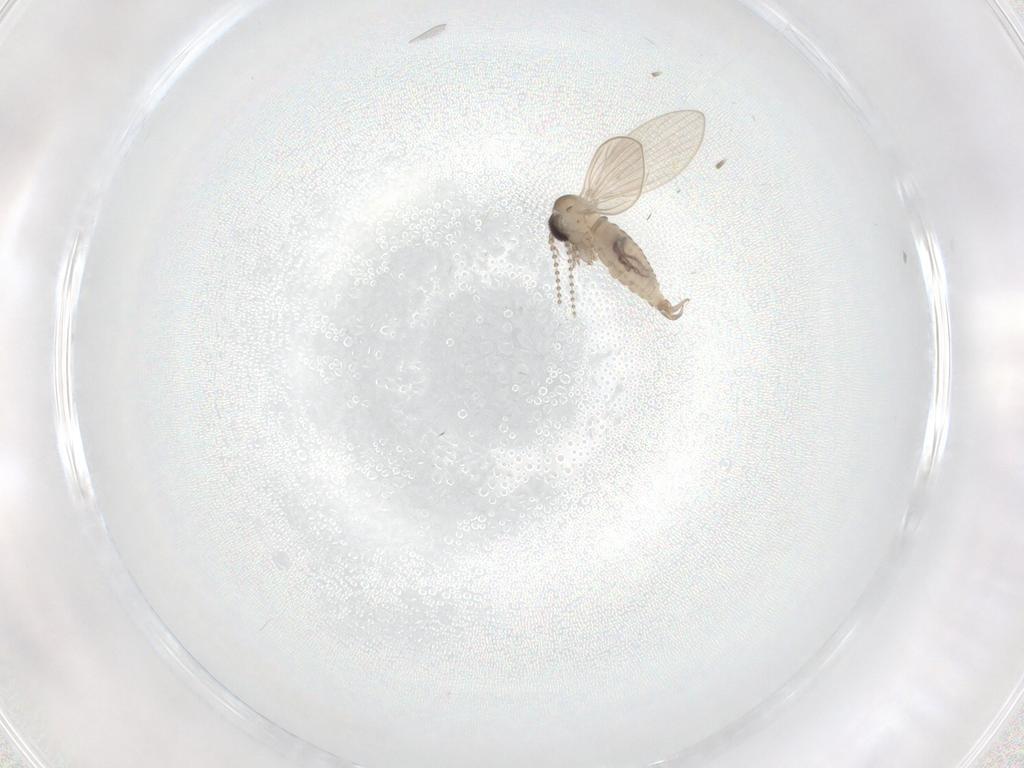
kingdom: Animalia
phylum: Arthropoda
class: Insecta
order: Diptera
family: Psychodidae
